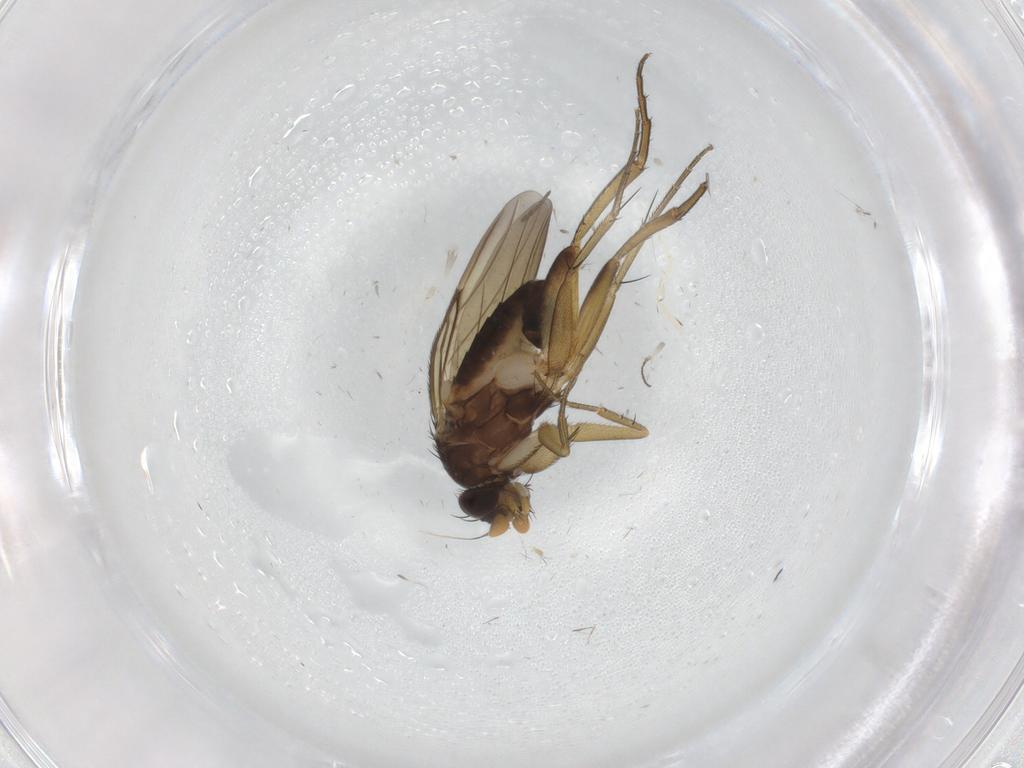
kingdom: Animalia
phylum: Arthropoda
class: Insecta
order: Diptera
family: Phoridae
